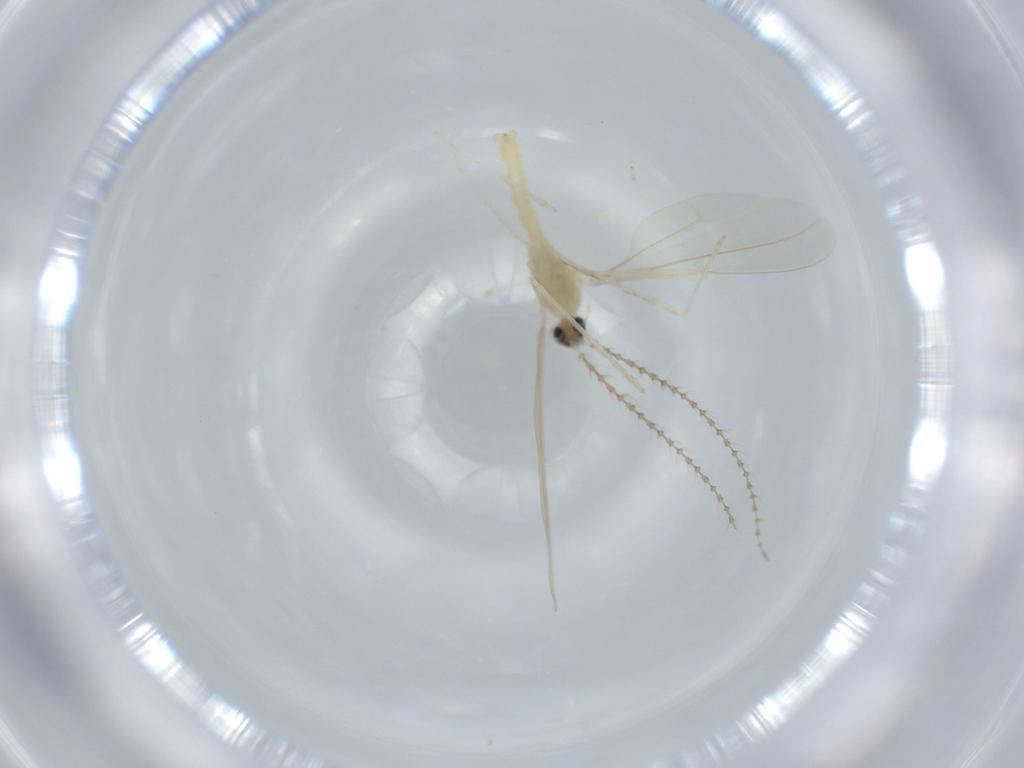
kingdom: Animalia
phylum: Arthropoda
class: Insecta
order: Diptera
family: Cecidomyiidae
